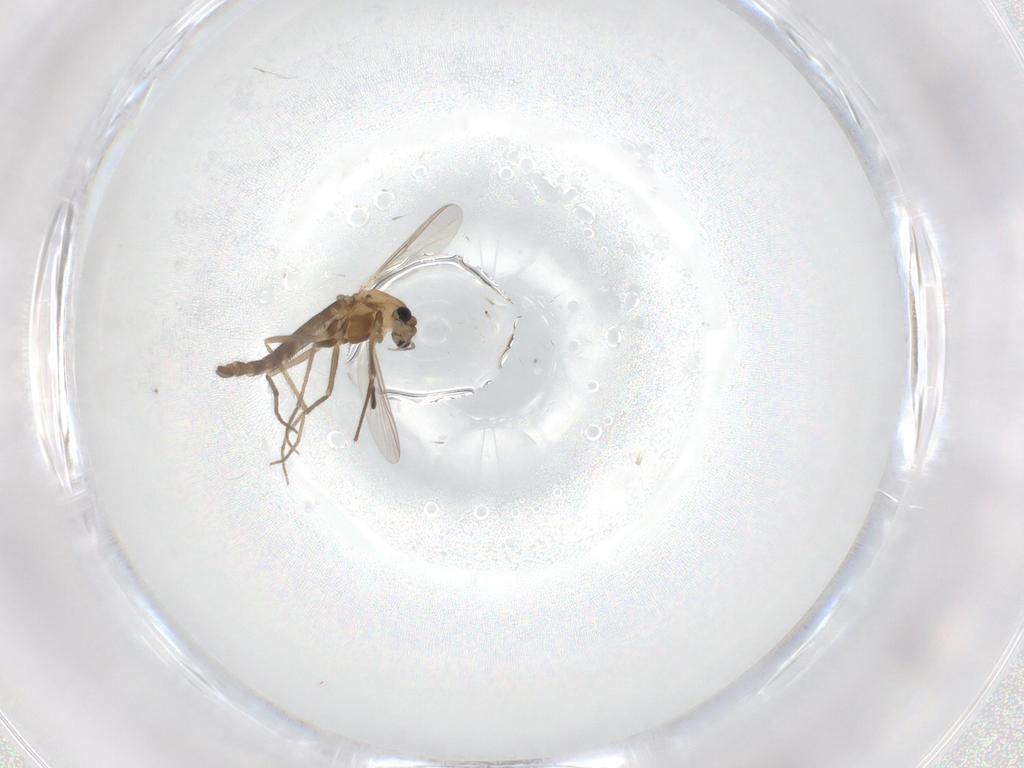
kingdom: Animalia
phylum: Arthropoda
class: Insecta
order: Diptera
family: Chironomidae
